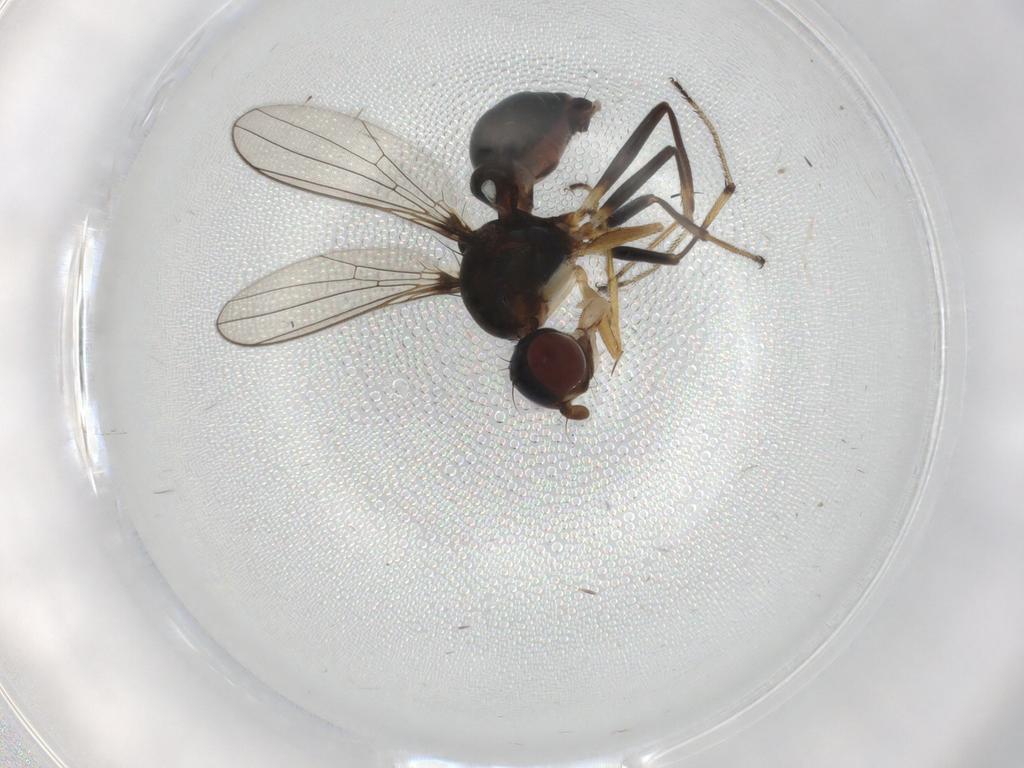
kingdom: Animalia
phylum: Arthropoda
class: Insecta
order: Diptera
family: Sepsidae
